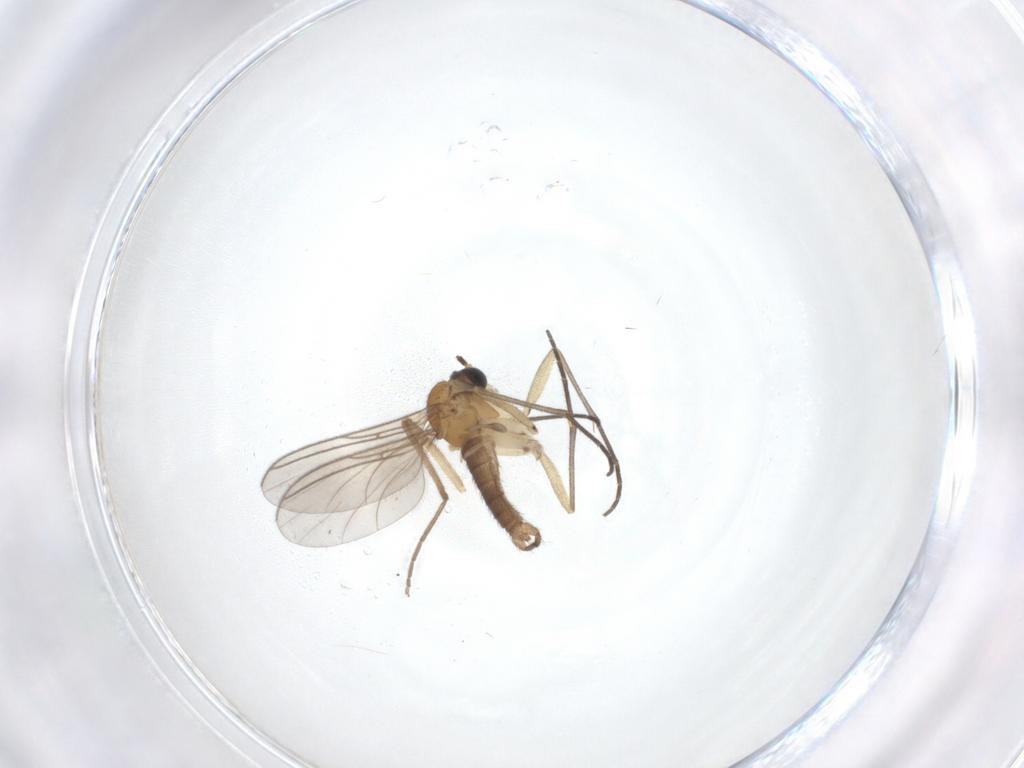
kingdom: Animalia
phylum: Arthropoda
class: Insecta
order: Diptera
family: Sciaridae
